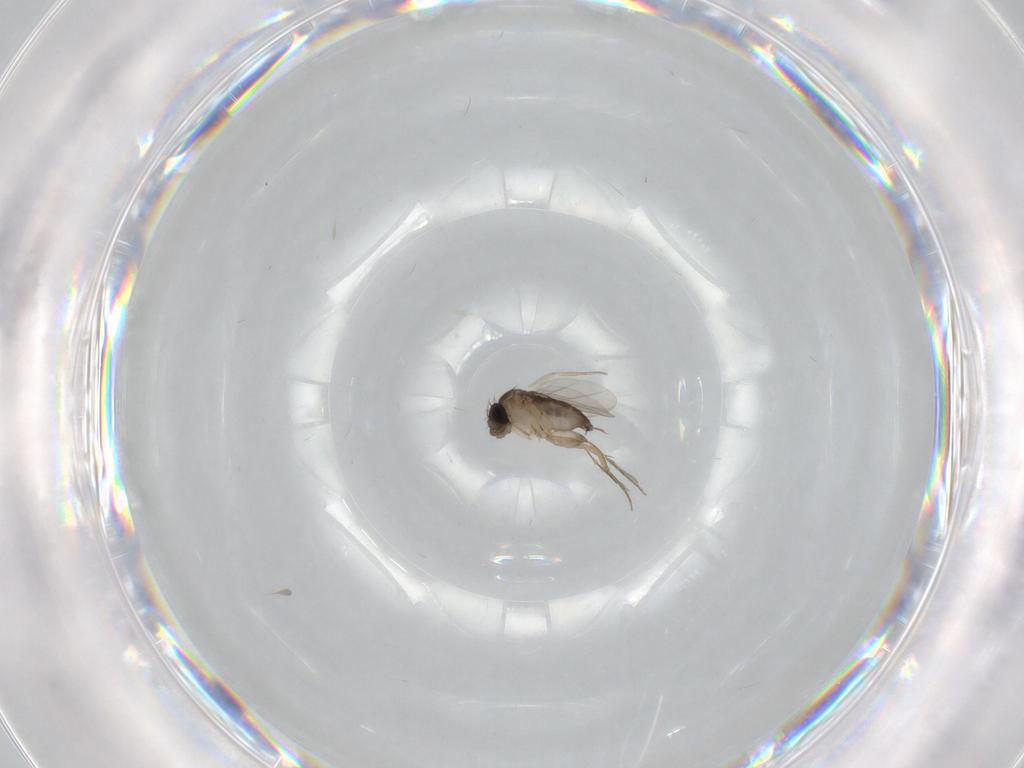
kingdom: Animalia
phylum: Arthropoda
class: Insecta
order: Diptera
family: Phoridae
